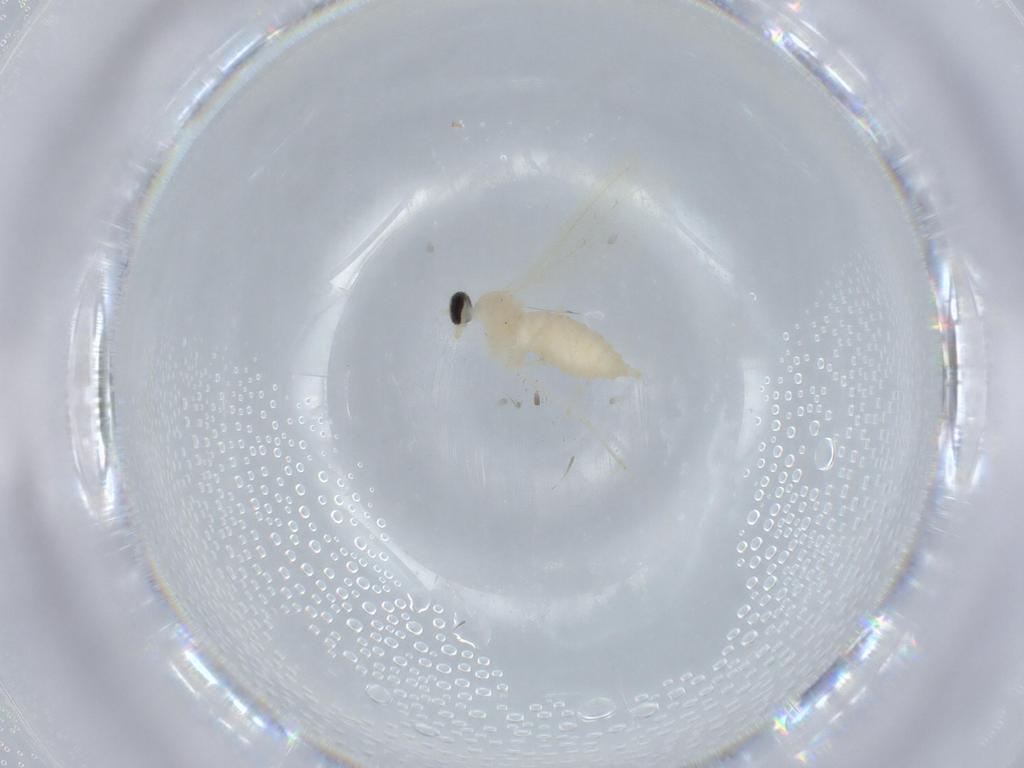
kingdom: Animalia
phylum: Arthropoda
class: Insecta
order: Diptera
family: Cecidomyiidae
